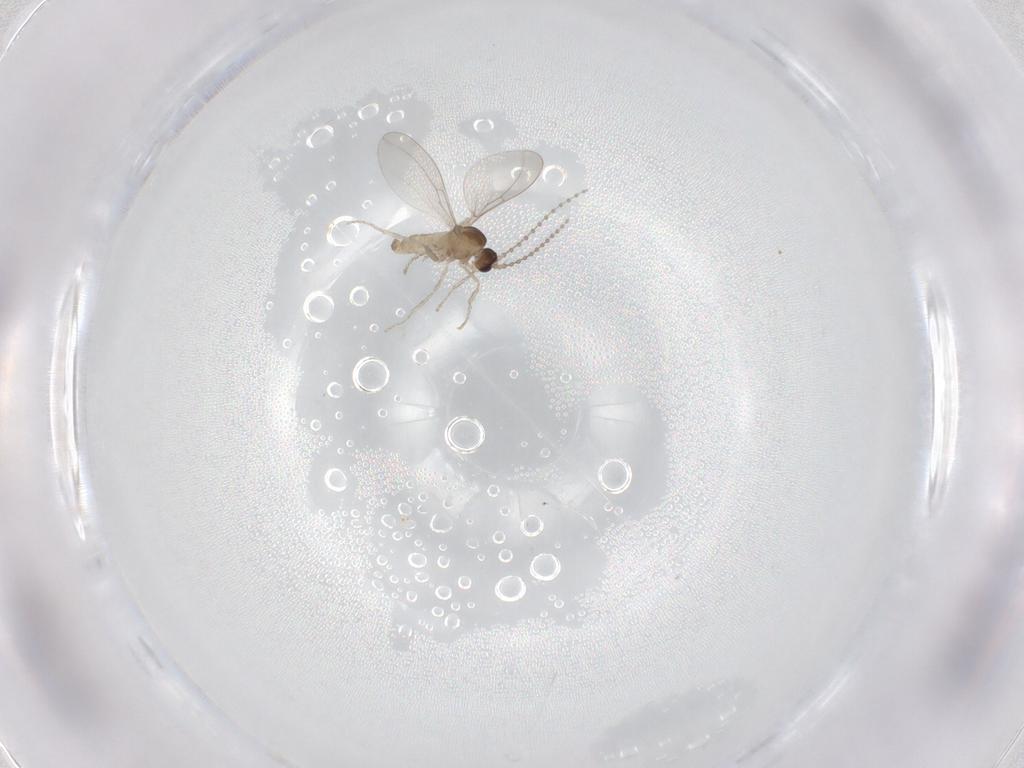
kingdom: Animalia
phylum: Arthropoda
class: Insecta
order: Diptera
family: Cecidomyiidae
